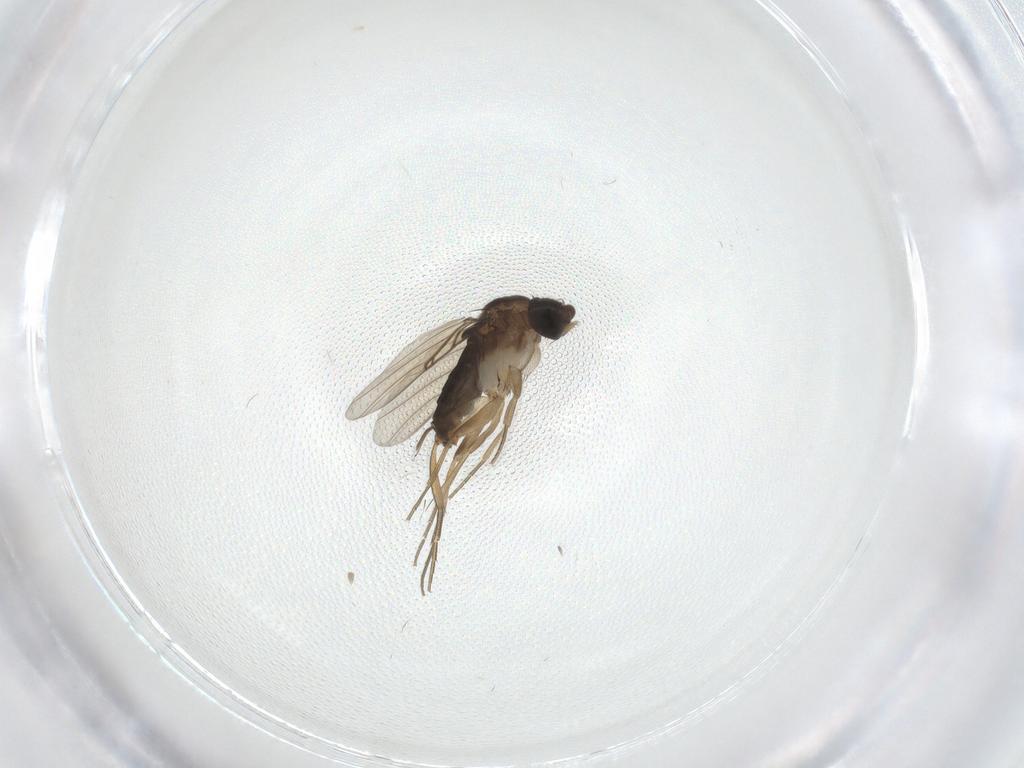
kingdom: Animalia
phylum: Arthropoda
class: Insecta
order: Diptera
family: Phoridae
